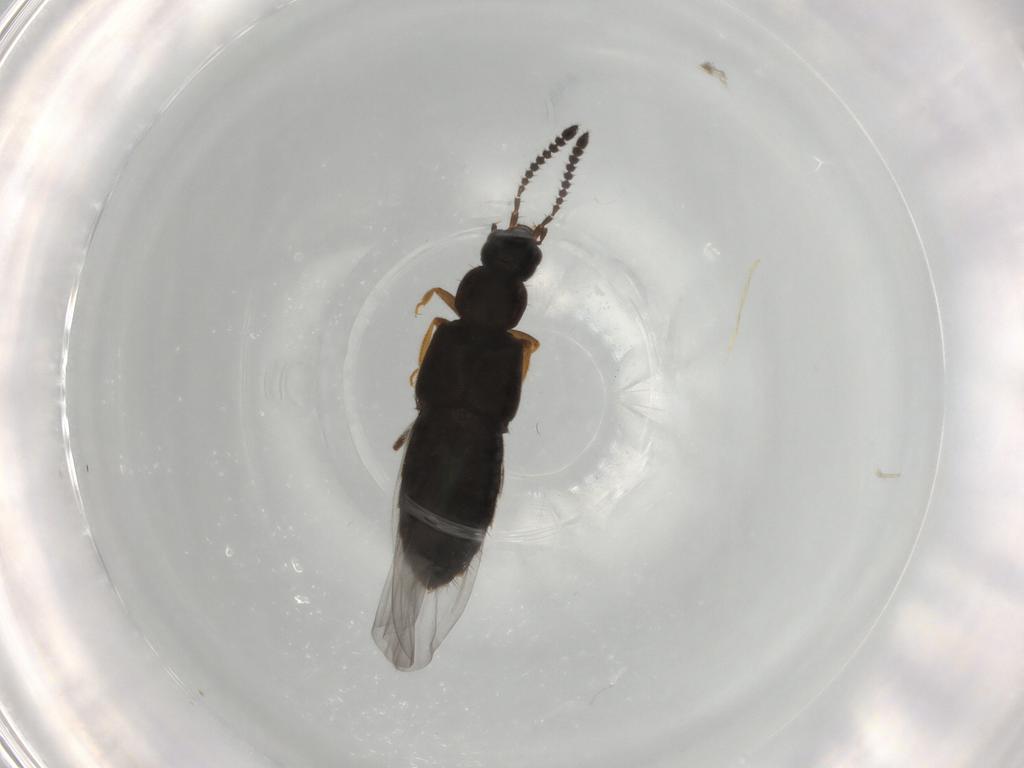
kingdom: Animalia
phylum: Arthropoda
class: Insecta
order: Coleoptera
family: Staphylinidae
